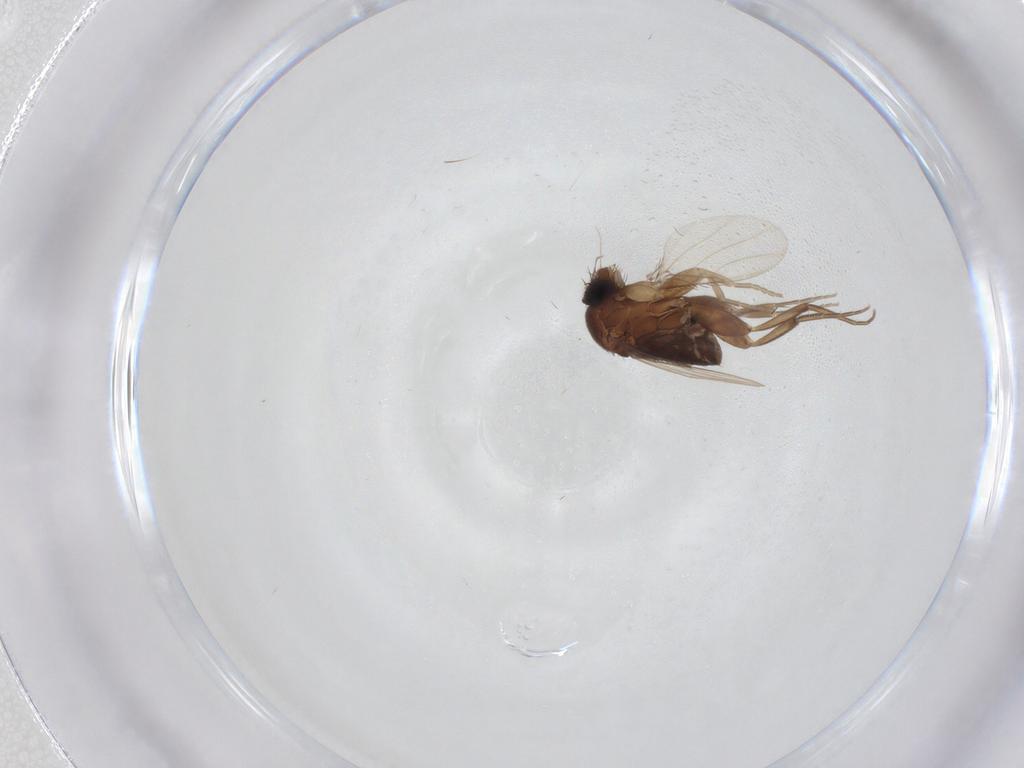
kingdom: Animalia
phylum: Arthropoda
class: Insecta
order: Diptera
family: Phoridae
